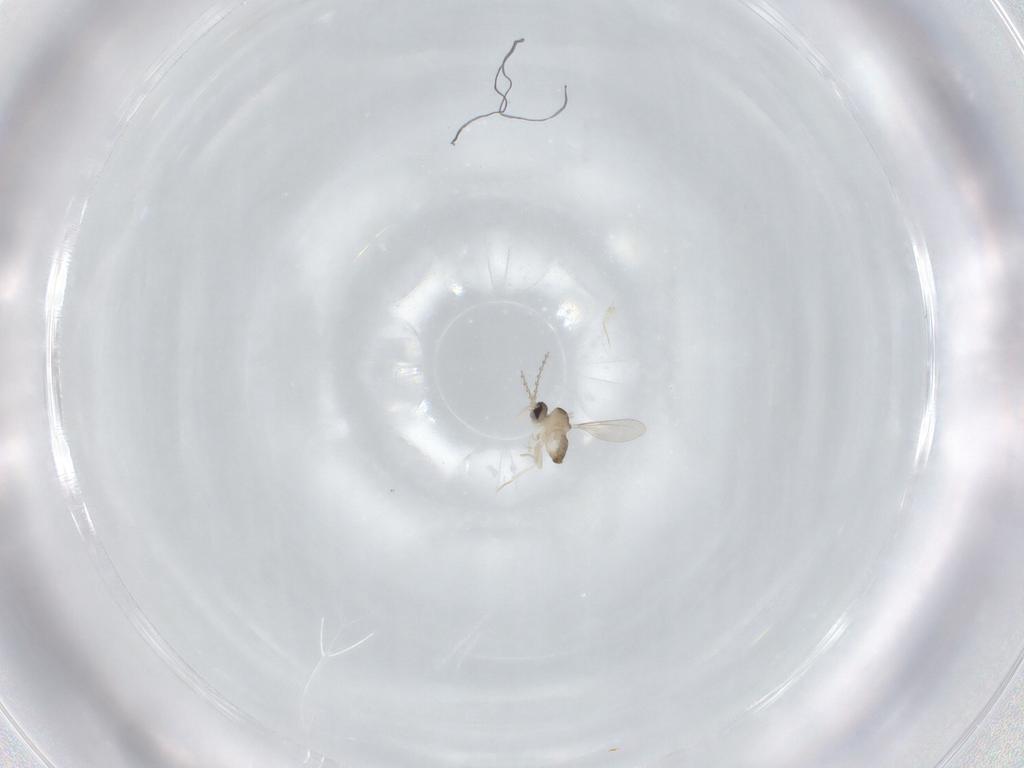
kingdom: Animalia
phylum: Arthropoda
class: Insecta
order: Diptera
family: Cecidomyiidae
